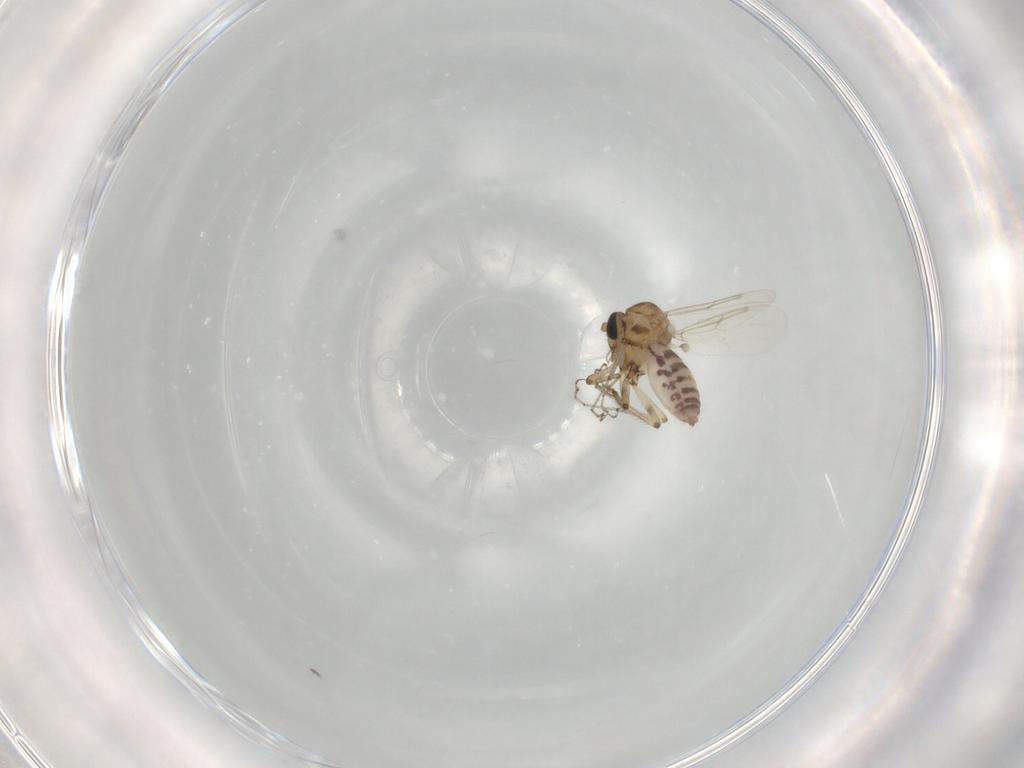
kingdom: Animalia
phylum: Arthropoda
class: Insecta
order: Diptera
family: Ceratopogonidae
